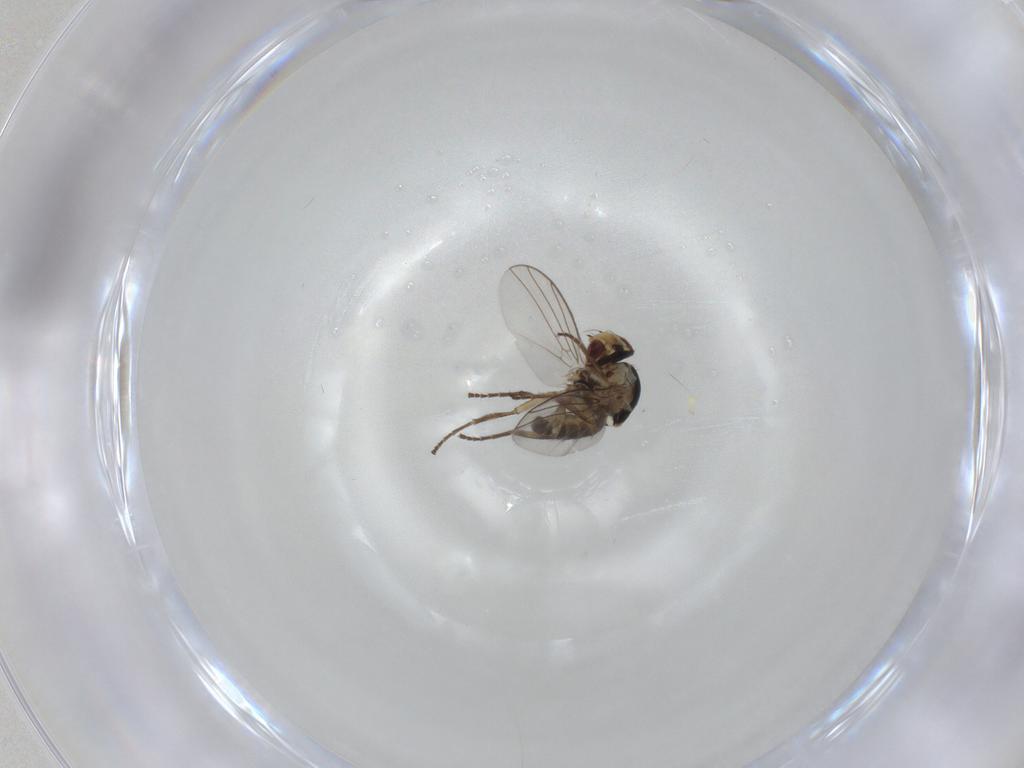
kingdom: Animalia
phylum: Arthropoda
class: Insecta
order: Diptera
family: Agromyzidae
